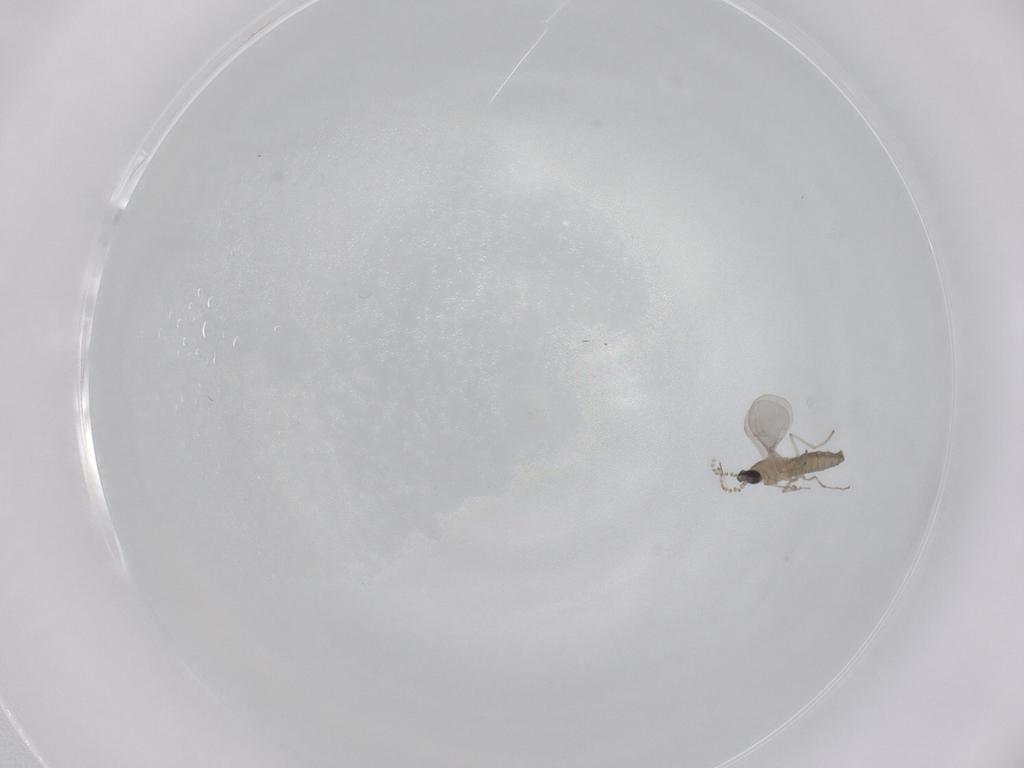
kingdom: Animalia
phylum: Arthropoda
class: Insecta
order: Diptera
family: Cecidomyiidae
